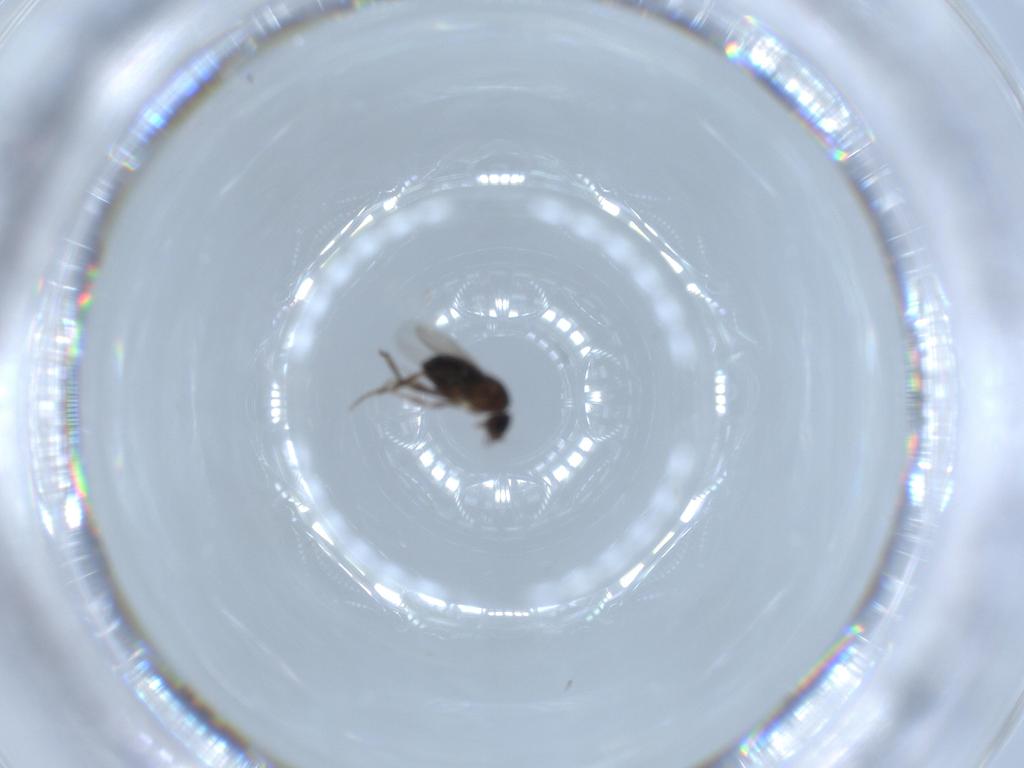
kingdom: Animalia
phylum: Arthropoda
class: Insecta
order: Diptera
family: Phoridae
